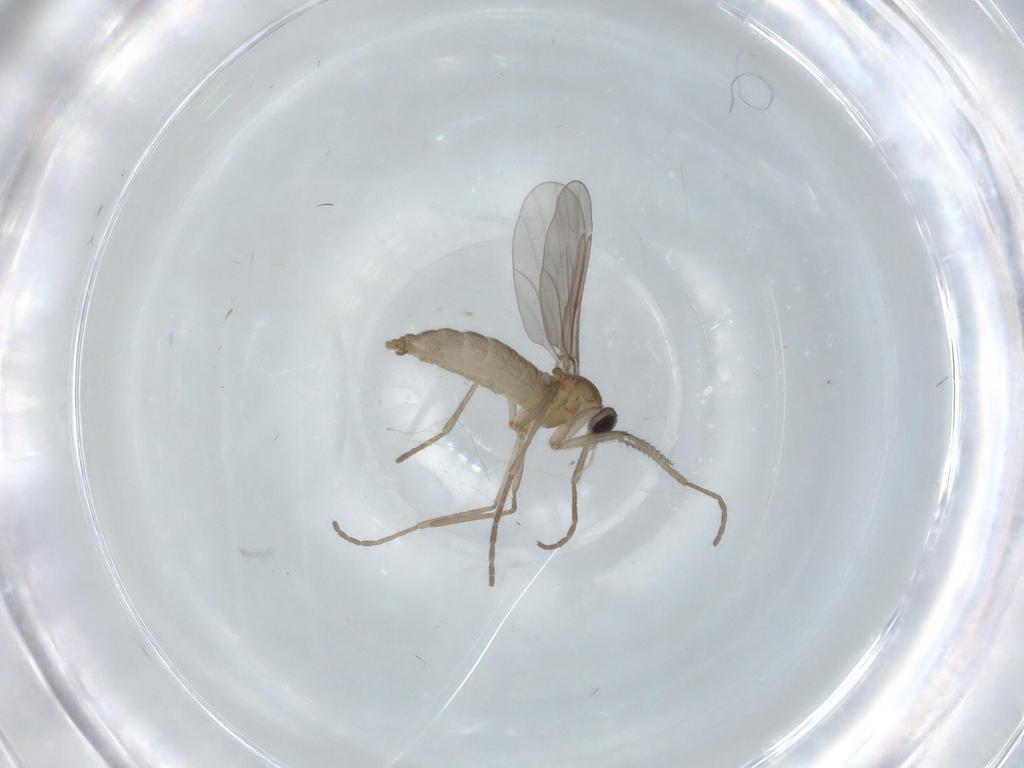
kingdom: Animalia
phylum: Arthropoda
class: Insecta
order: Diptera
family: Cecidomyiidae
